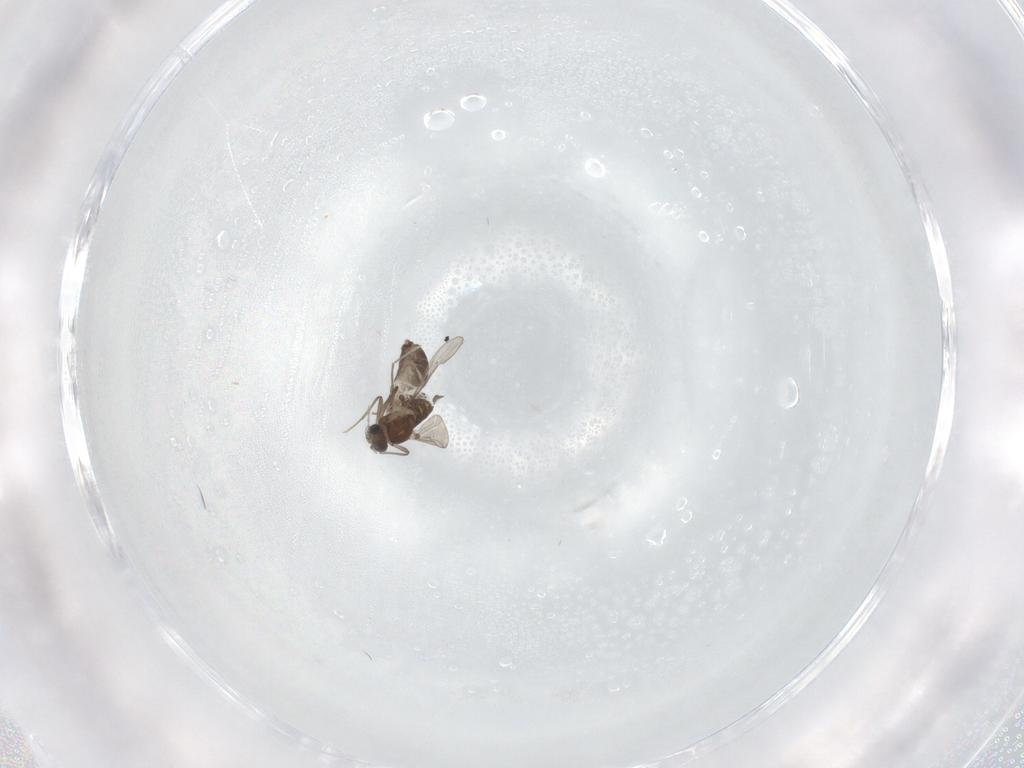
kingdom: Animalia
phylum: Arthropoda
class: Insecta
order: Diptera
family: Chironomidae
